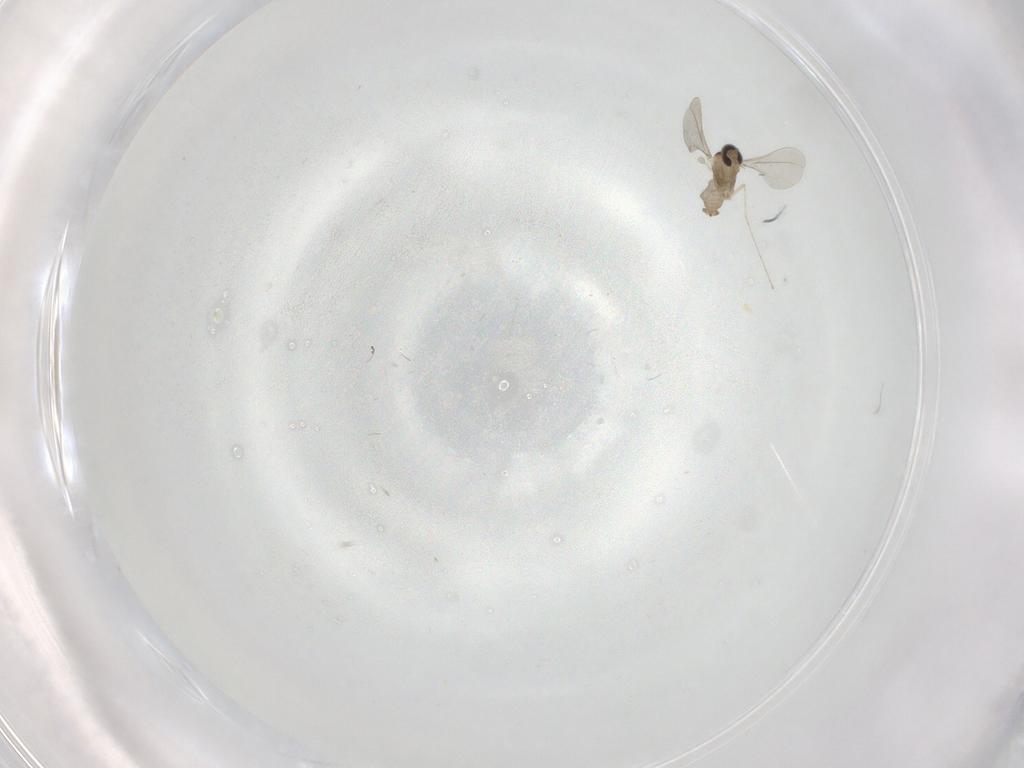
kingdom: Animalia
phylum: Arthropoda
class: Insecta
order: Diptera
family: Cecidomyiidae
